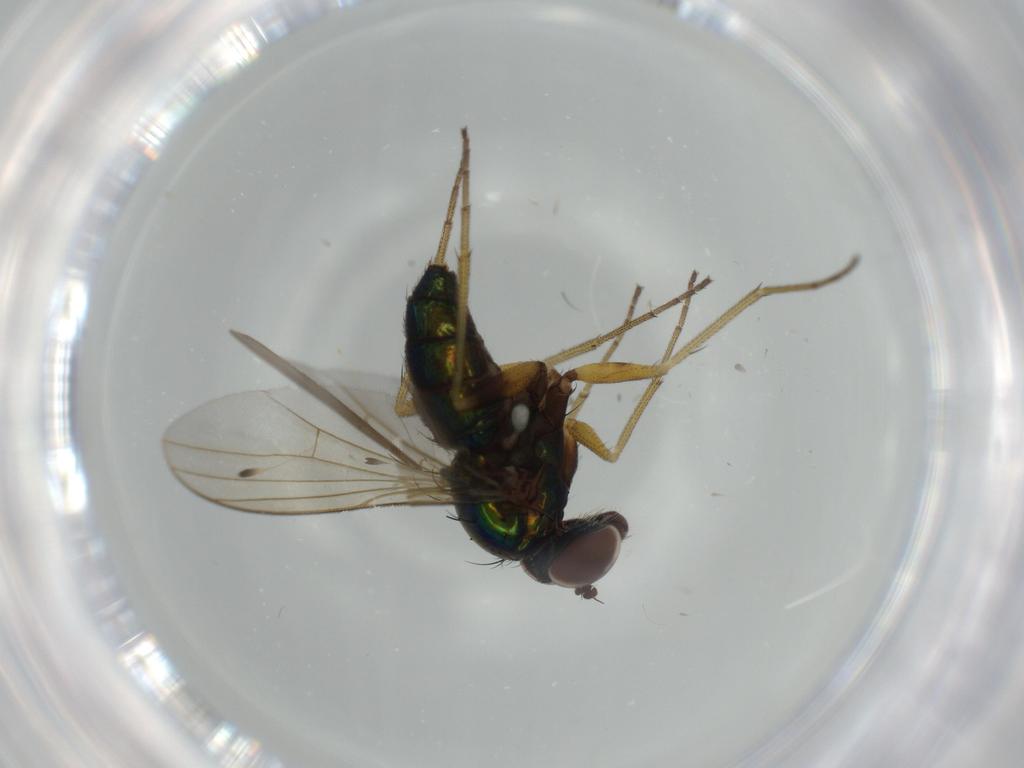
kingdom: Animalia
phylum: Arthropoda
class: Insecta
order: Diptera
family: Dolichopodidae
